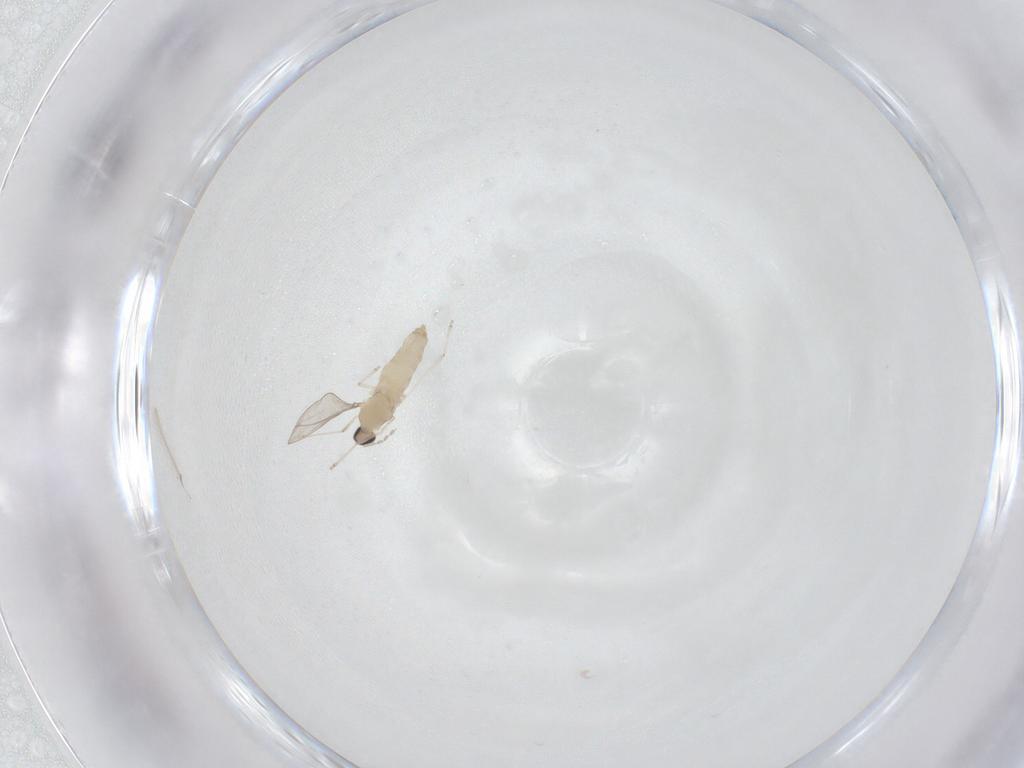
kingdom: Animalia
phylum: Arthropoda
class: Insecta
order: Diptera
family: Cecidomyiidae
